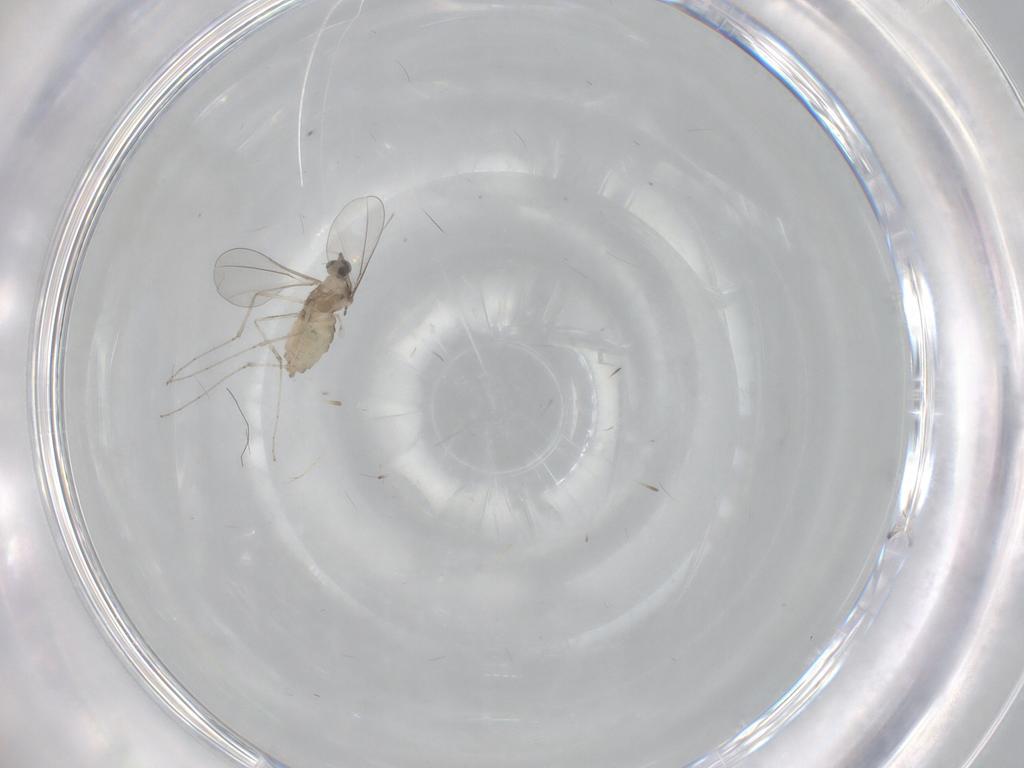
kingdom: Animalia
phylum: Arthropoda
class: Insecta
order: Diptera
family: Cecidomyiidae
